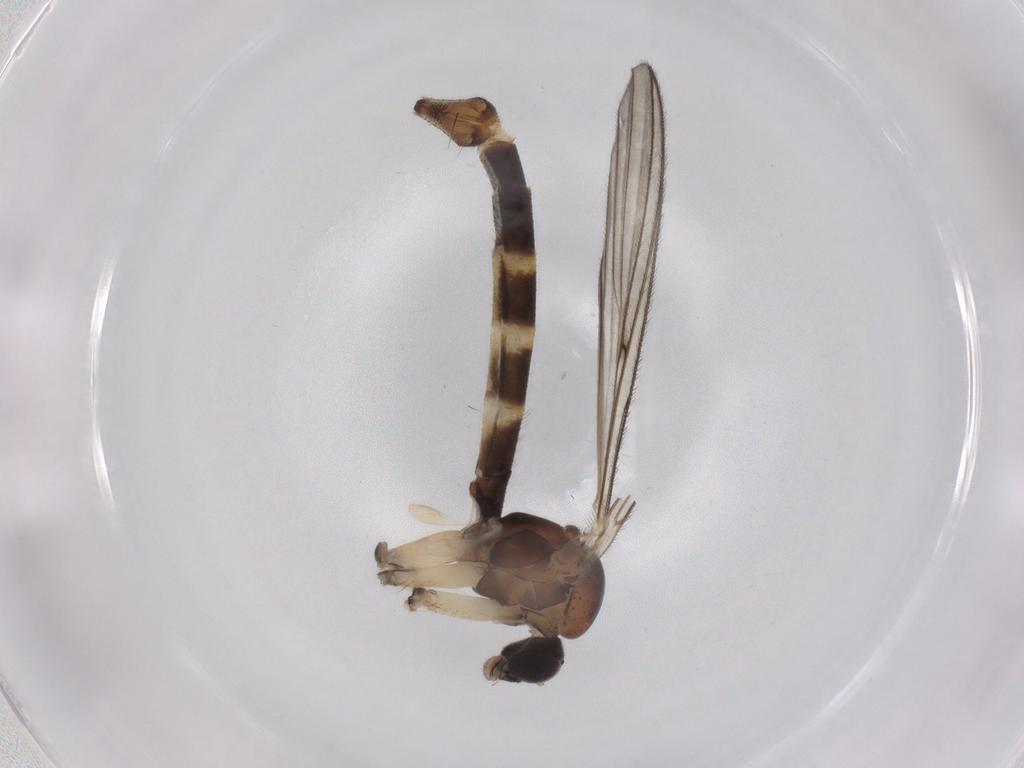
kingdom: Animalia
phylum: Arthropoda
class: Insecta
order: Diptera
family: Mycetophilidae
